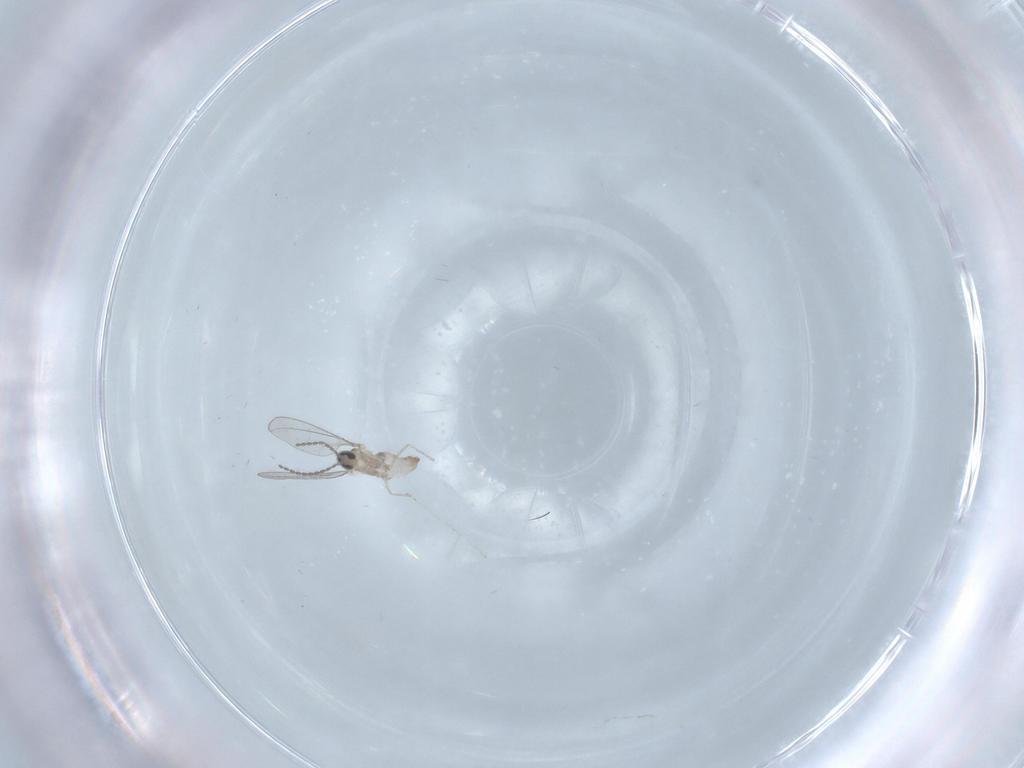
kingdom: Animalia
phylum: Arthropoda
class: Insecta
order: Diptera
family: Cecidomyiidae
